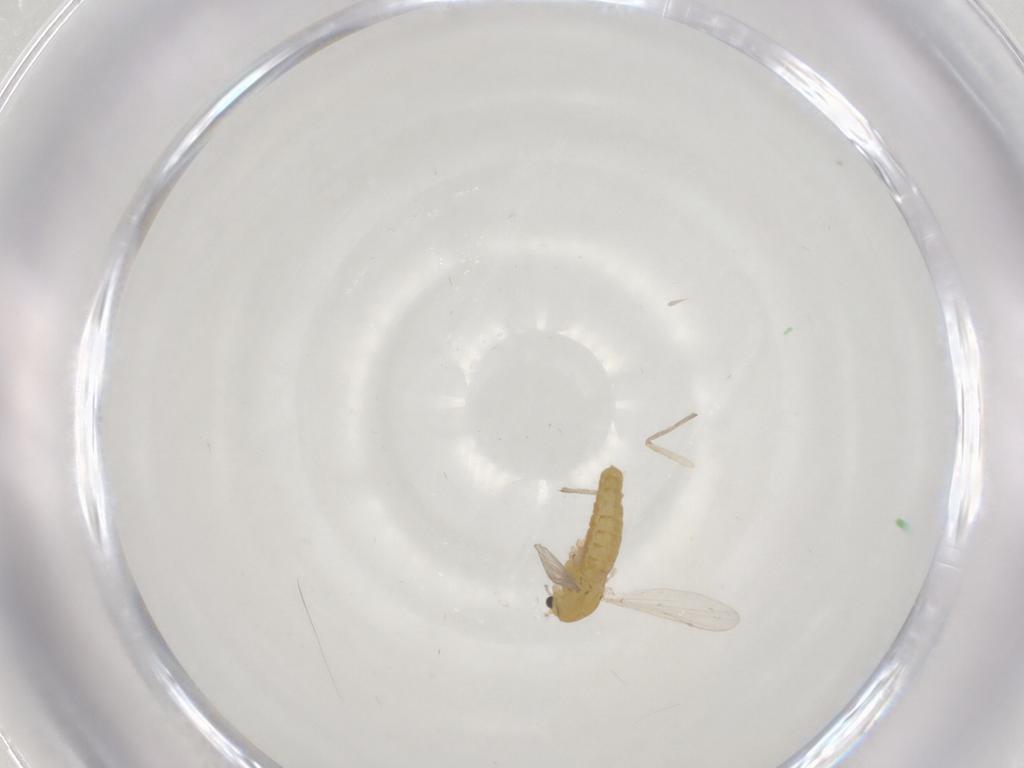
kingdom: Animalia
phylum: Arthropoda
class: Insecta
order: Diptera
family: Chironomidae
